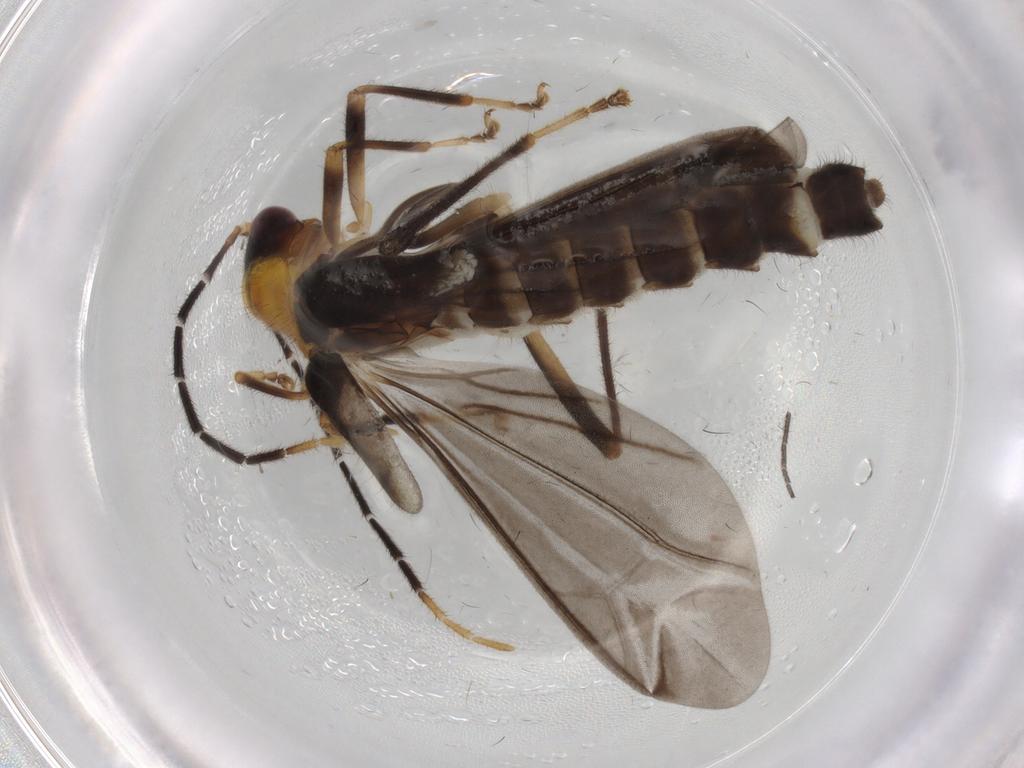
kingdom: Animalia
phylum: Arthropoda
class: Insecta
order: Coleoptera
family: Cantharidae
